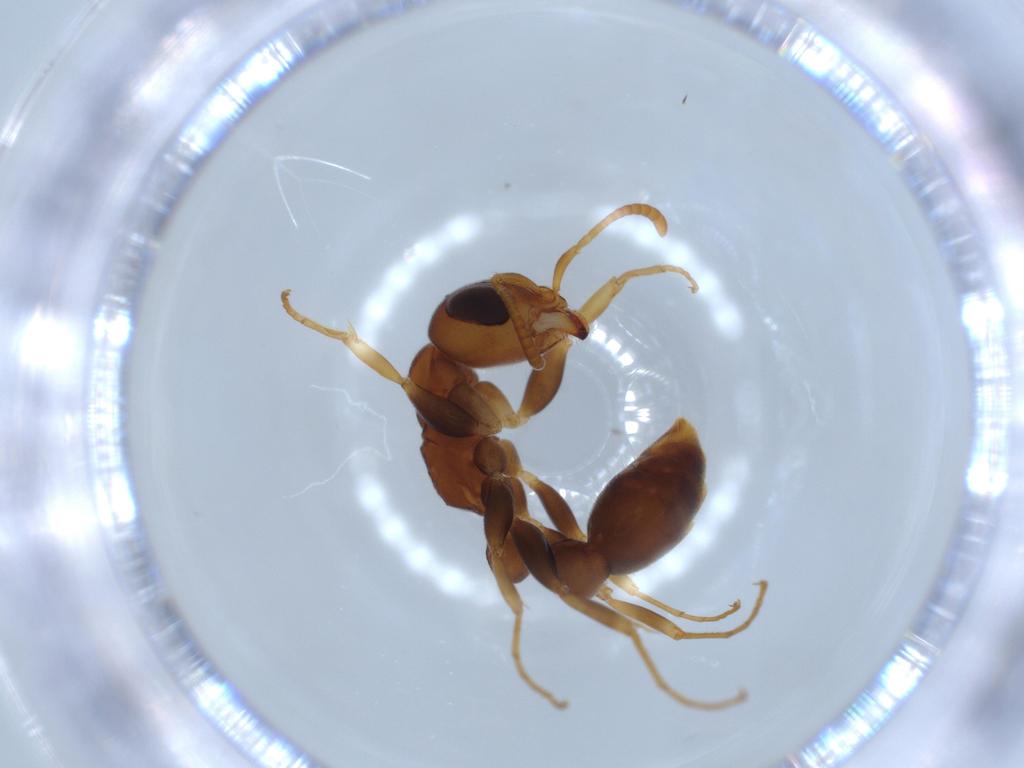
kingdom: Animalia
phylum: Arthropoda
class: Insecta
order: Hymenoptera
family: Formicidae
